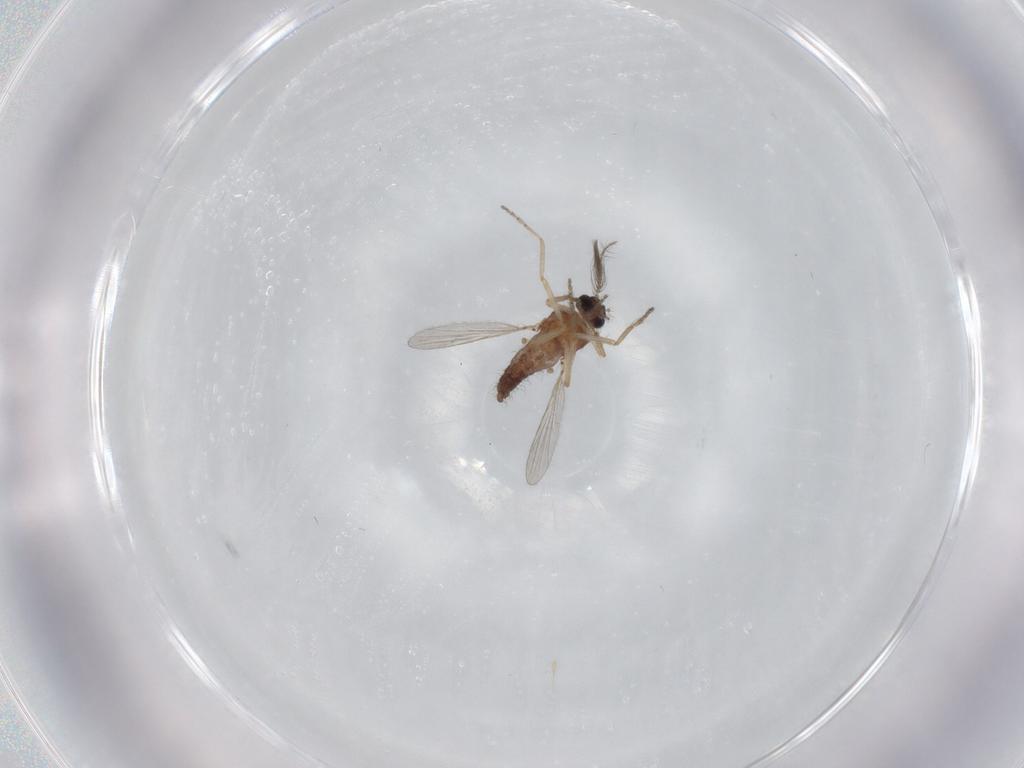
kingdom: Animalia
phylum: Arthropoda
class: Insecta
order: Diptera
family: Ceratopogonidae
